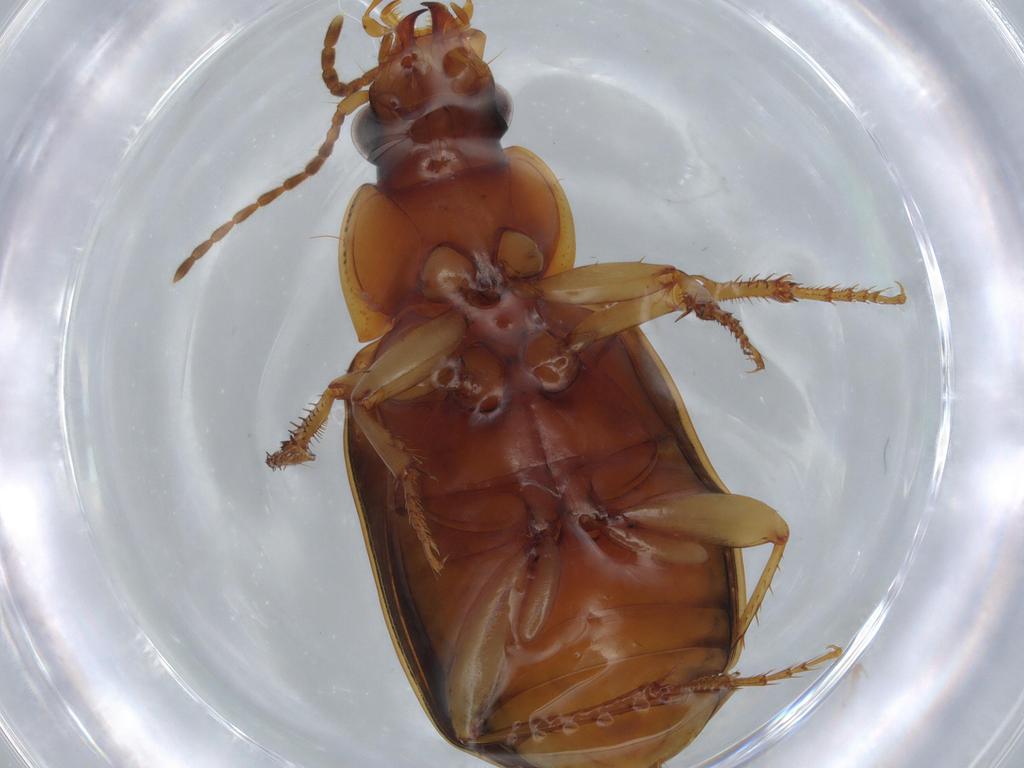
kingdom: Animalia
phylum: Arthropoda
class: Insecta
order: Coleoptera
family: Carabidae
